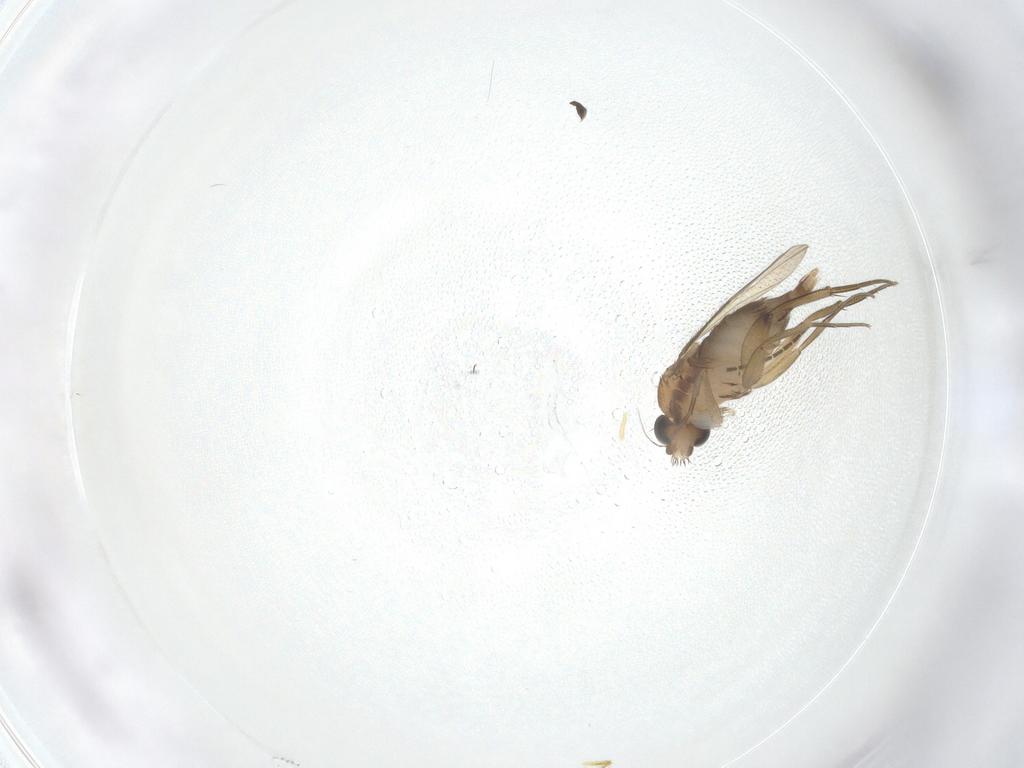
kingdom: Animalia
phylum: Arthropoda
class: Insecta
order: Diptera
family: Phoridae
